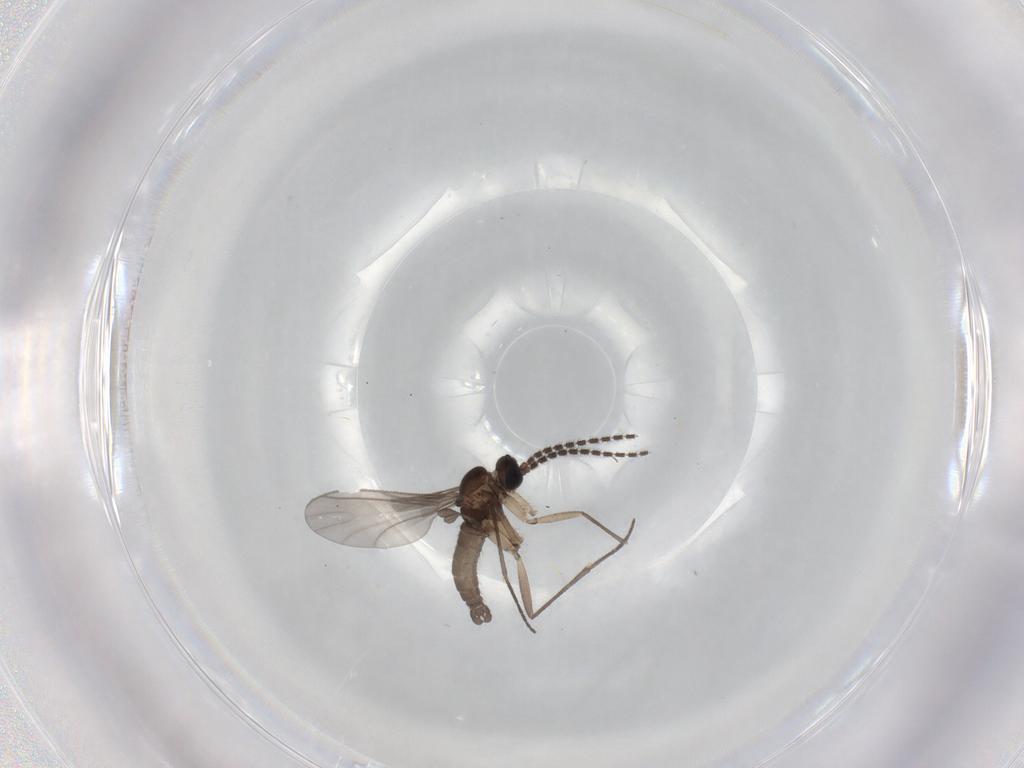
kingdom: Animalia
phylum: Arthropoda
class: Insecta
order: Diptera
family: Sciaridae
